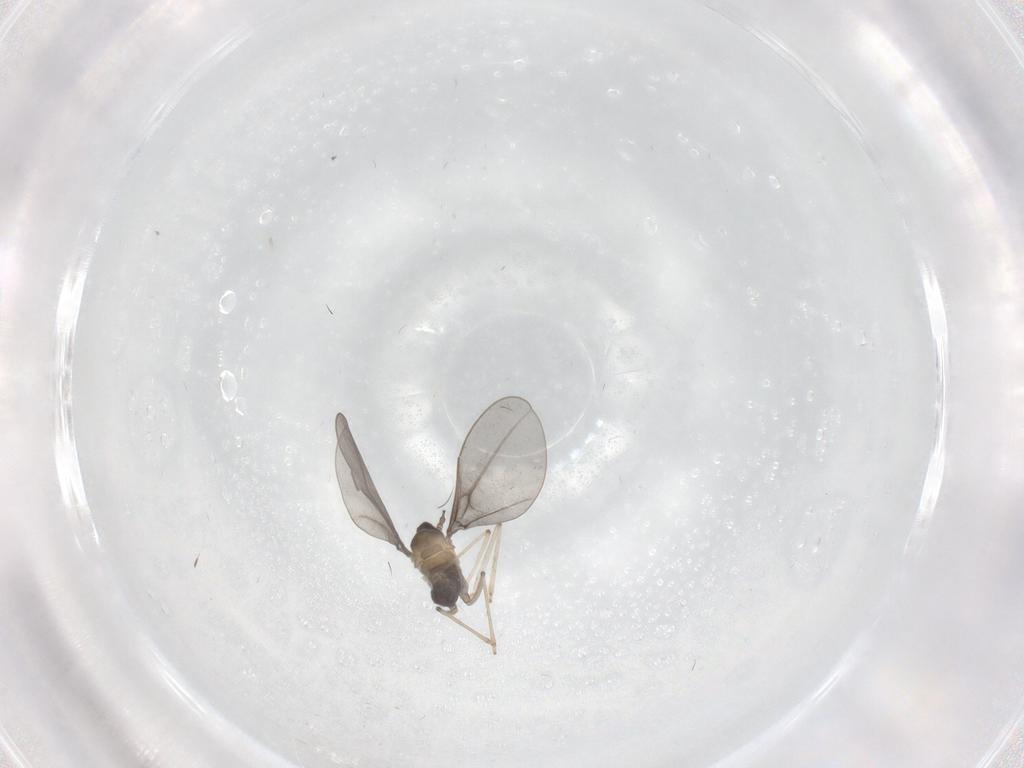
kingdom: Animalia
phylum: Arthropoda
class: Insecta
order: Diptera
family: Cecidomyiidae
